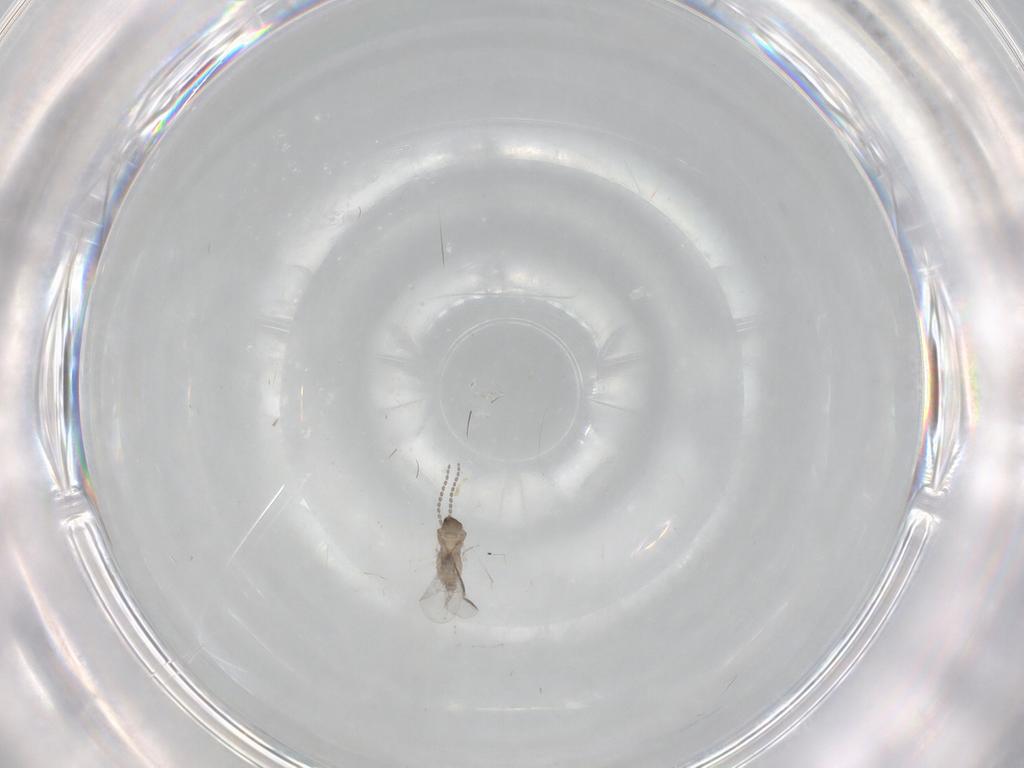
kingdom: Animalia
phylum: Arthropoda
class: Insecta
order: Diptera
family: Cecidomyiidae
